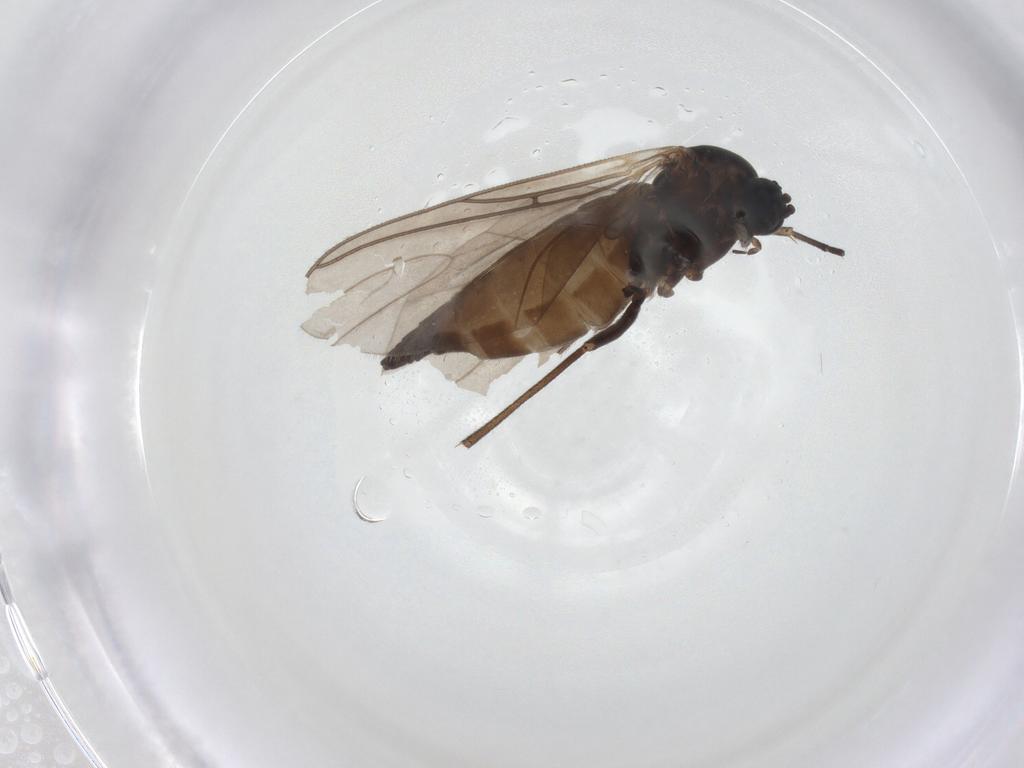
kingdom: Animalia
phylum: Arthropoda
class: Insecta
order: Diptera
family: Sciaridae
